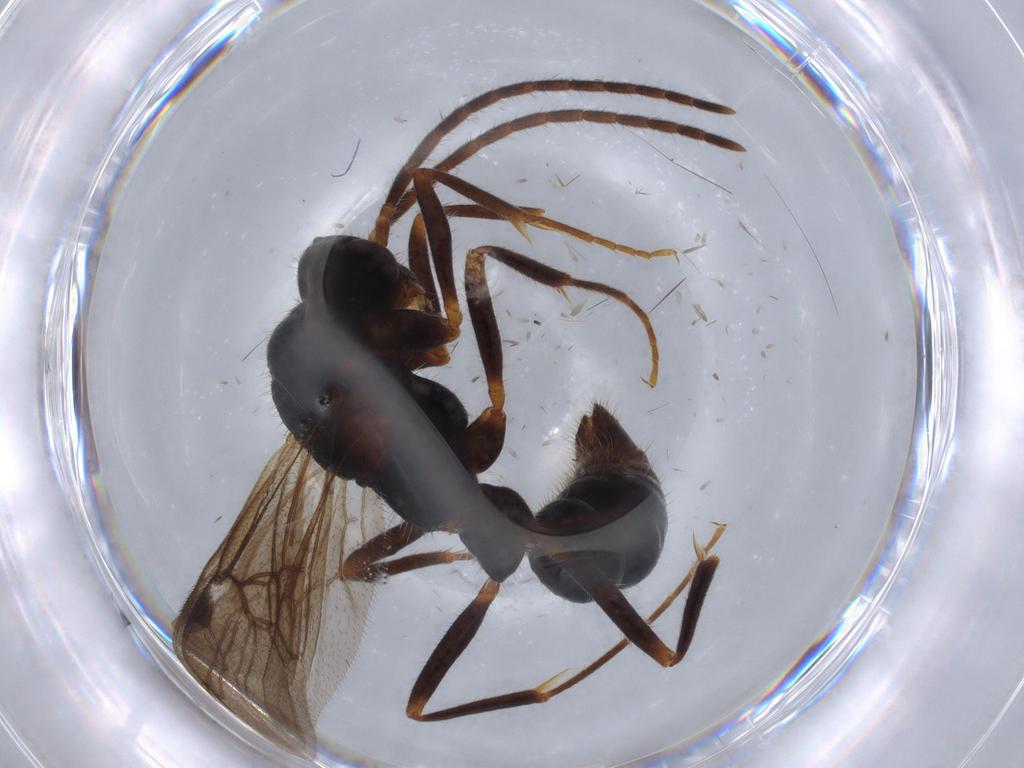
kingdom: Animalia
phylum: Arthropoda
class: Insecta
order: Hymenoptera
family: Formicidae
